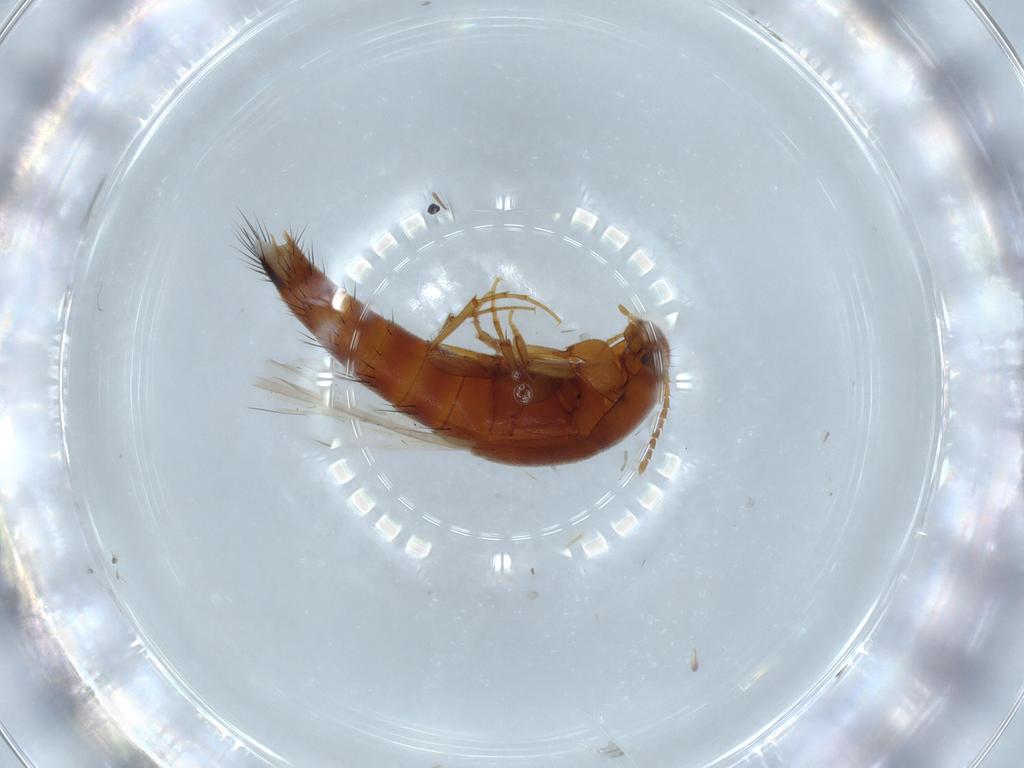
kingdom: Animalia
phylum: Arthropoda
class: Insecta
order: Coleoptera
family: Staphylinidae
